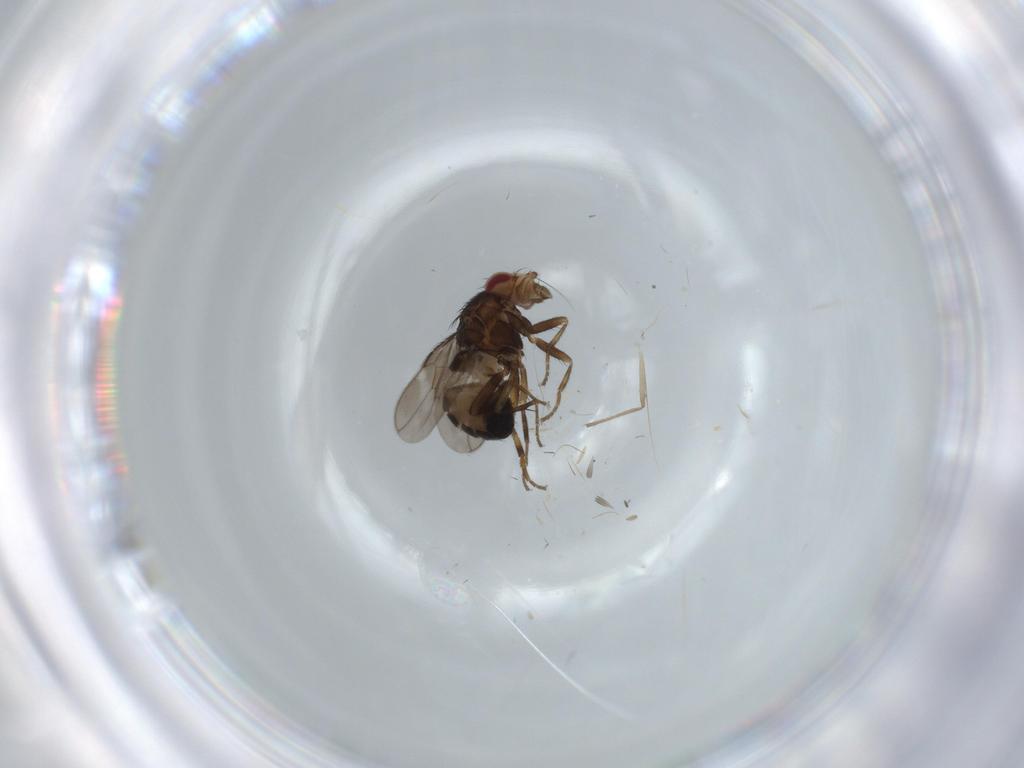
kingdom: Animalia
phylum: Arthropoda
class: Insecta
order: Diptera
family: Sphaeroceridae
